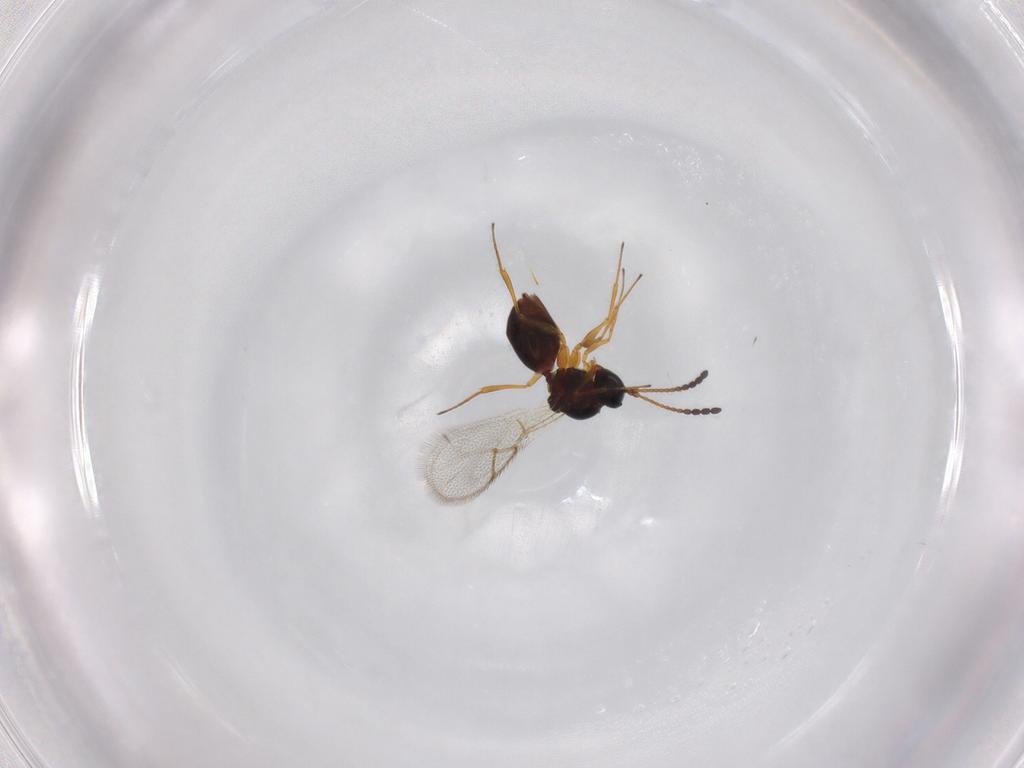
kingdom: Animalia
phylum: Arthropoda
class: Insecta
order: Hymenoptera
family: Figitidae
